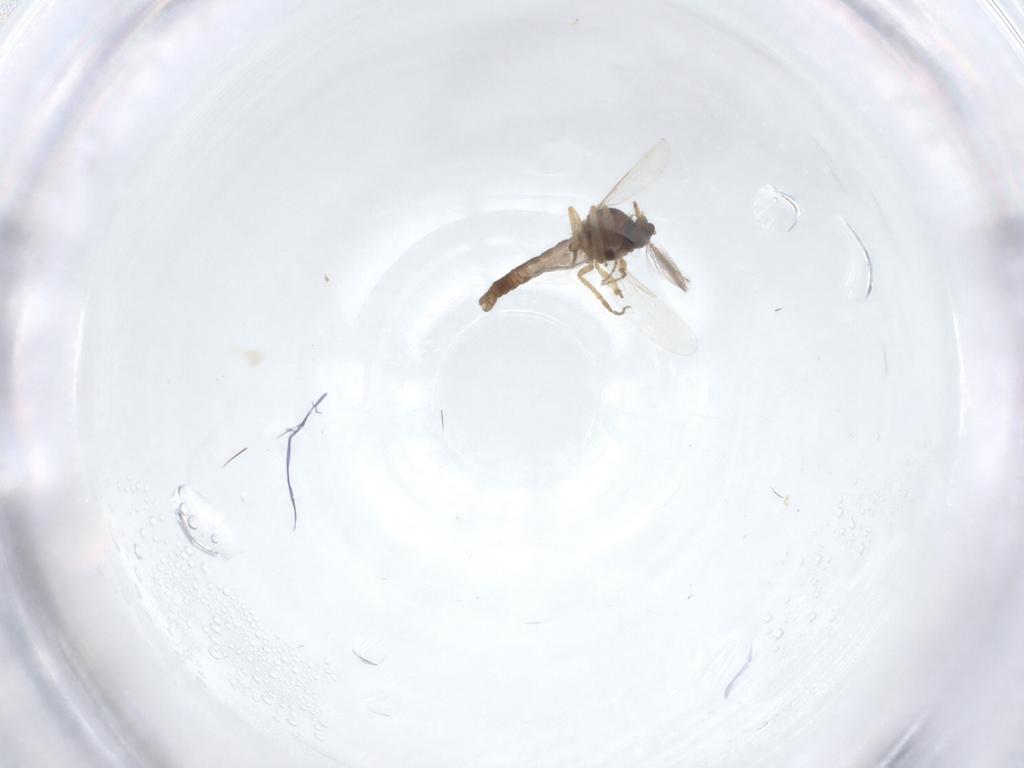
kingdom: Animalia
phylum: Arthropoda
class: Insecta
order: Diptera
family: Ceratopogonidae
